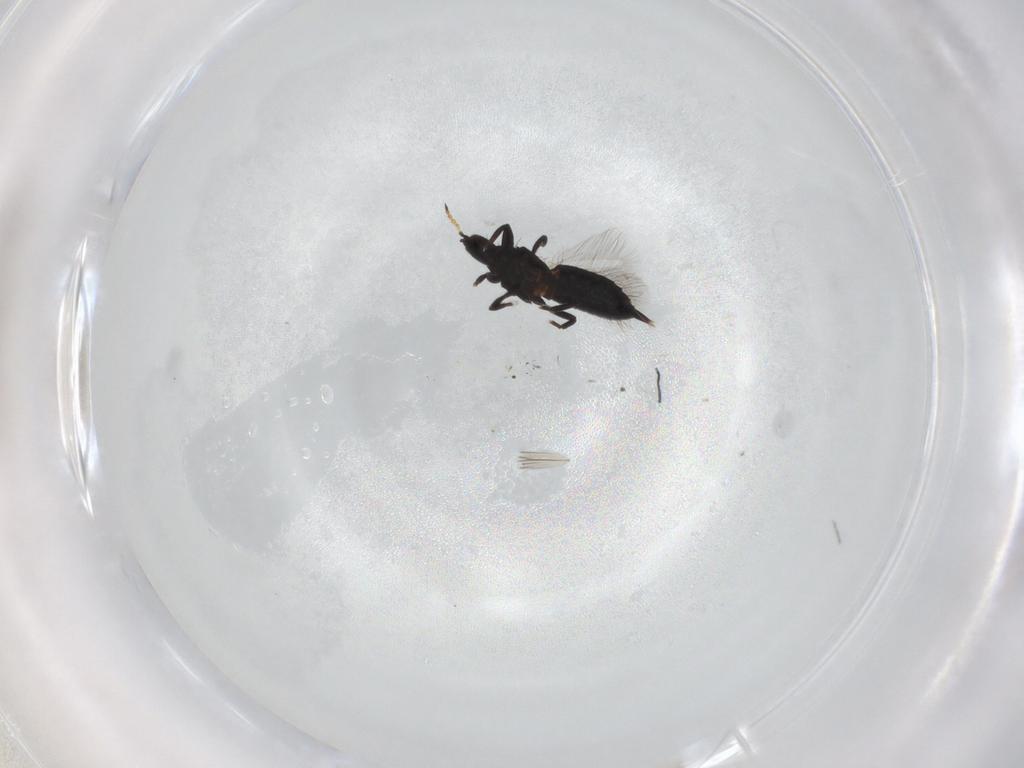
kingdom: Animalia
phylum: Arthropoda
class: Insecta
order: Thysanoptera
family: Phlaeothripidae
